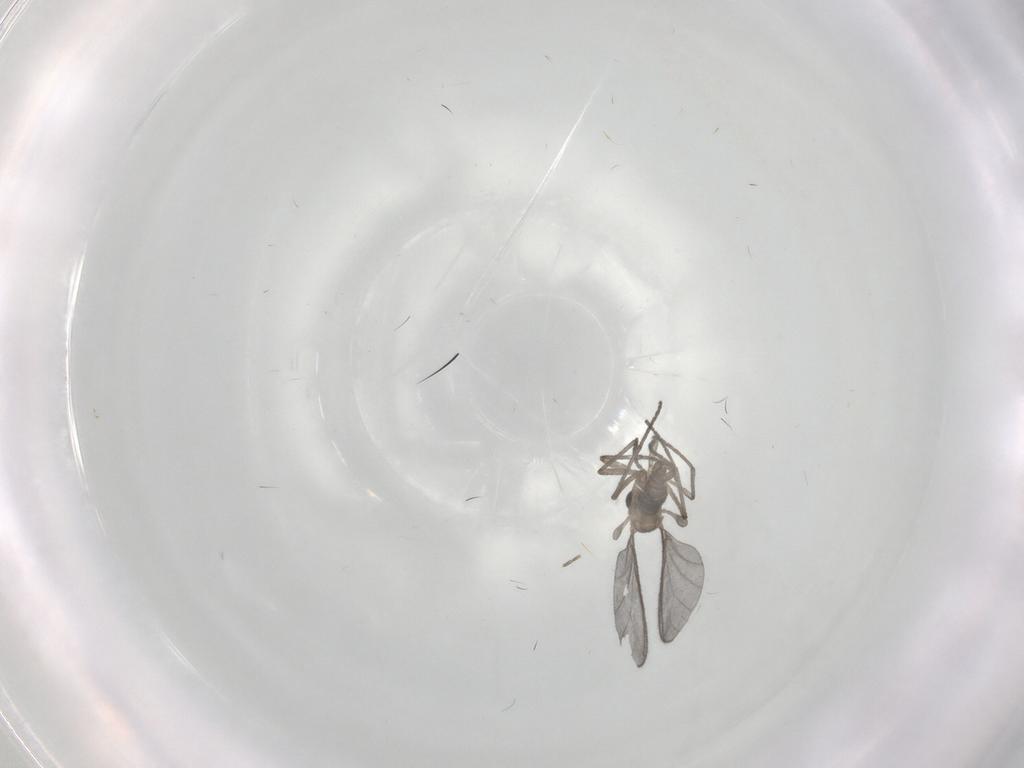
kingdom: Animalia
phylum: Arthropoda
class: Insecta
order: Diptera
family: Sciaridae
